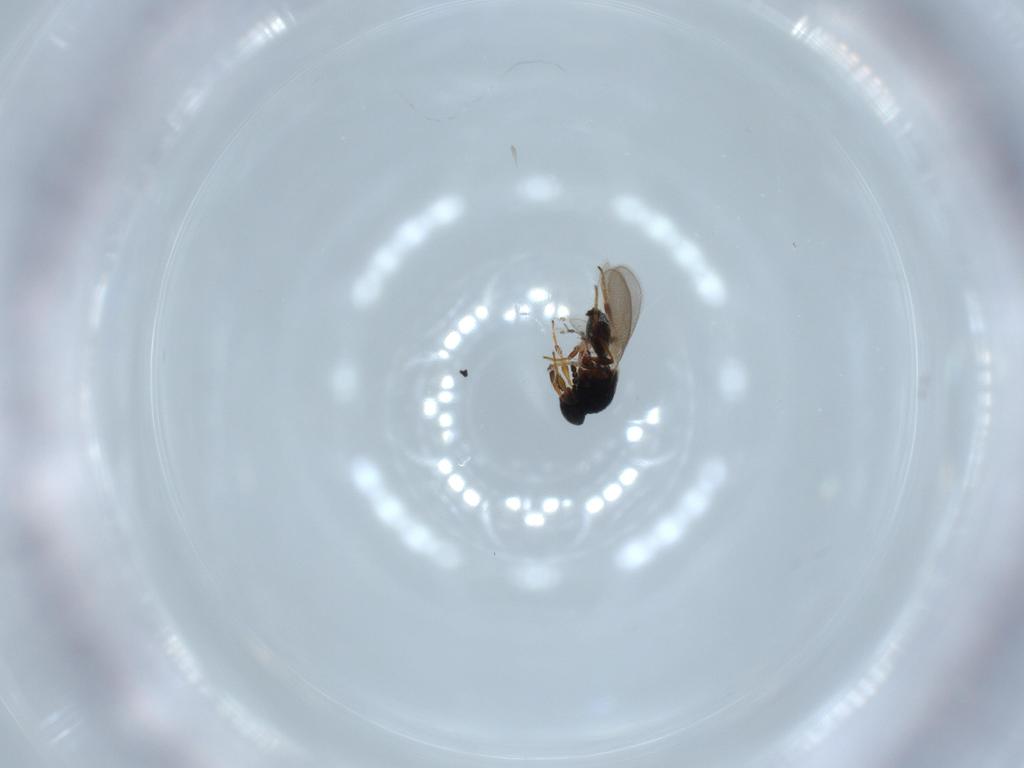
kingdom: Animalia
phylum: Arthropoda
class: Insecta
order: Hymenoptera
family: Platygastridae
